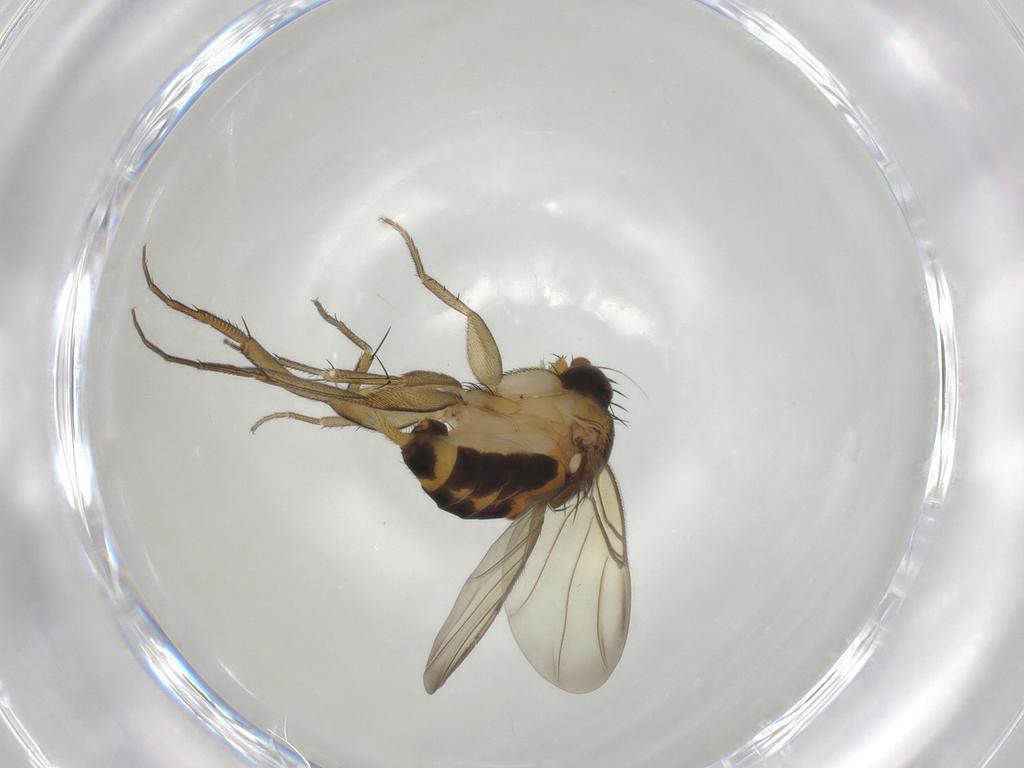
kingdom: Animalia
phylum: Arthropoda
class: Insecta
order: Diptera
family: Phoridae
